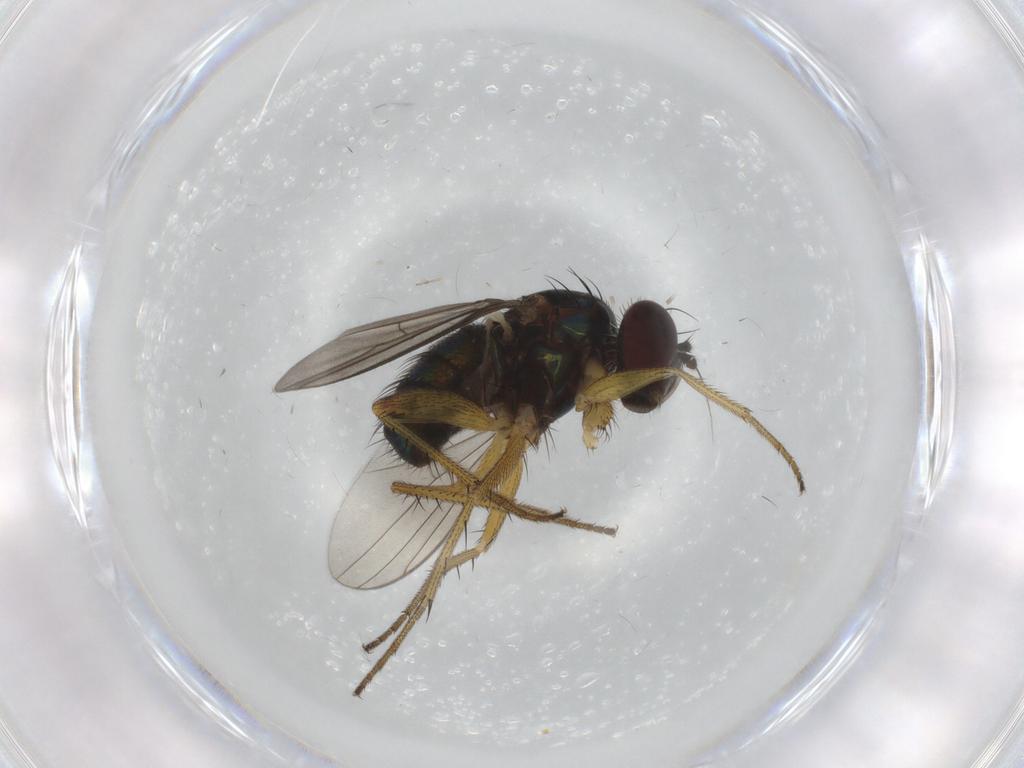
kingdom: Animalia
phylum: Arthropoda
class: Insecta
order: Diptera
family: Dolichopodidae
